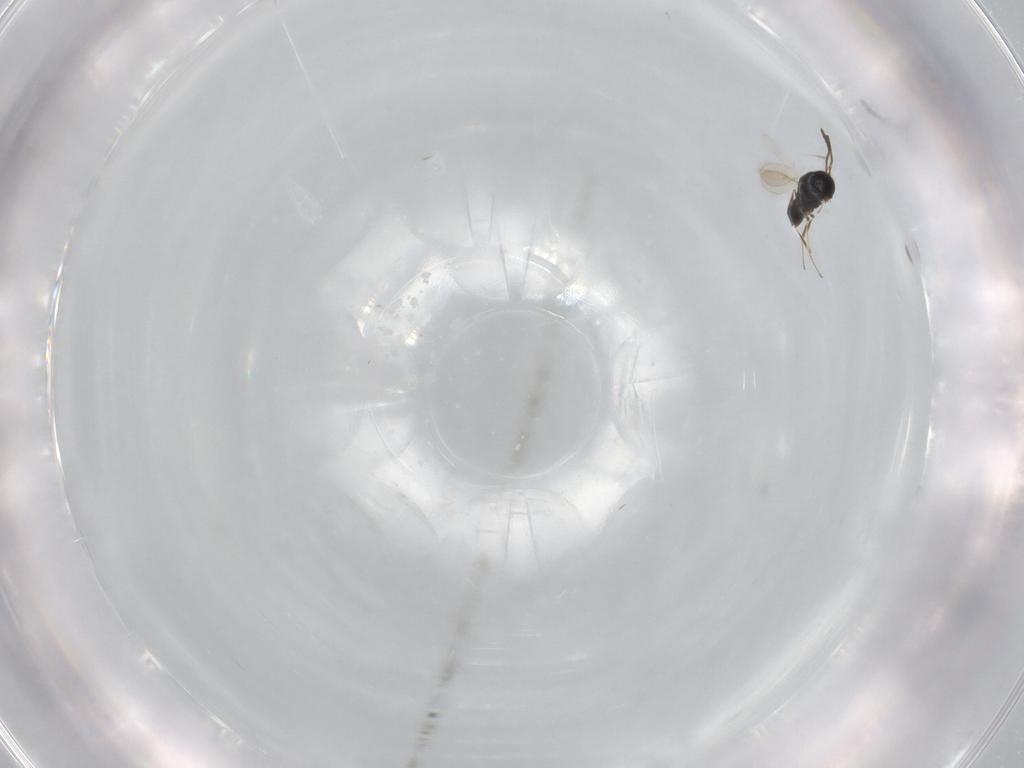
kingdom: Animalia
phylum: Arthropoda
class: Insecta
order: Hymenoptera
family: Scelionidae
